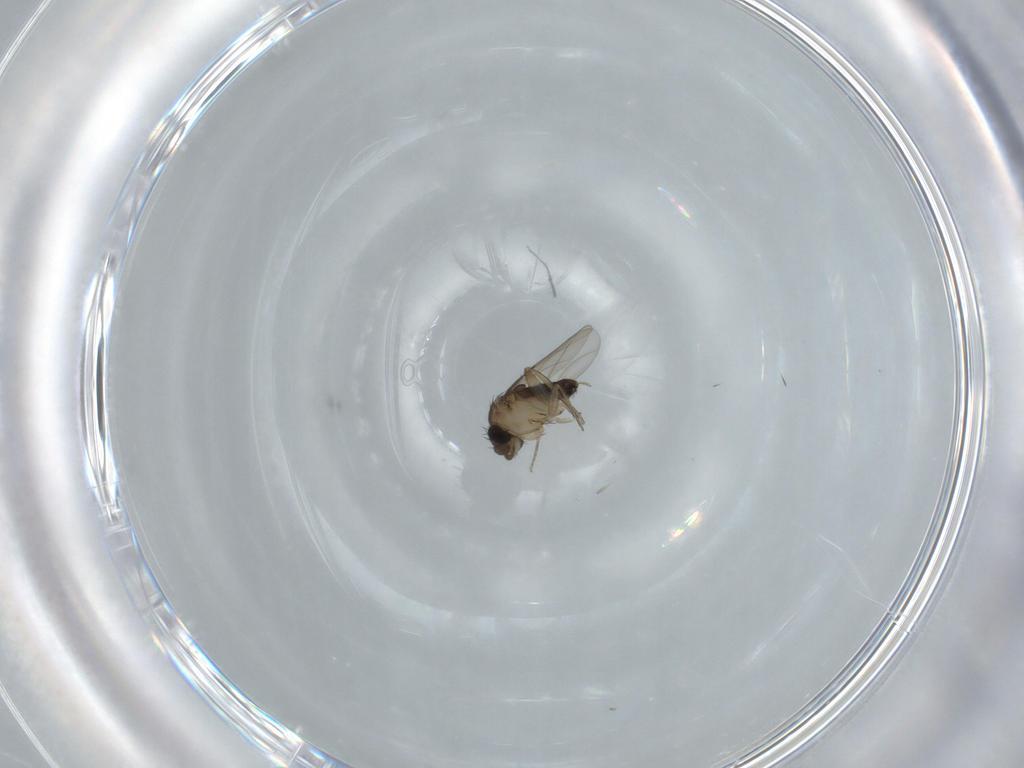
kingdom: Animalia
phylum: Arthropoda
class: Insecta
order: Diptera
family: Phoridae
